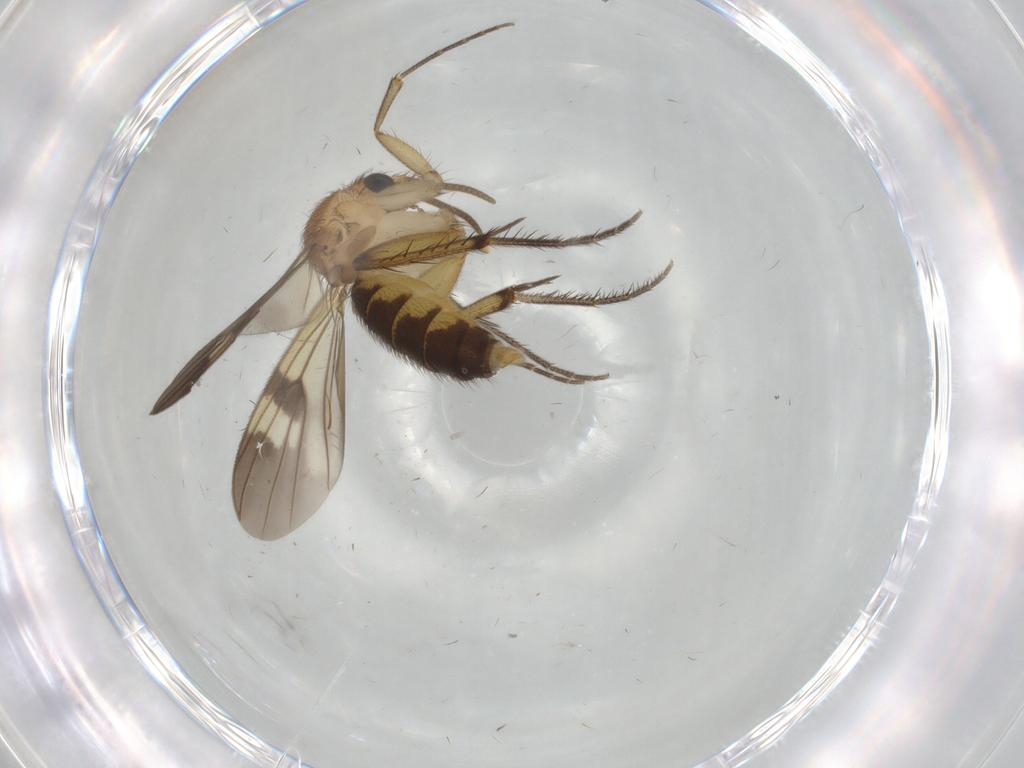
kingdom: Animalia
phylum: Arthropoda
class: Insecta
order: Diptera
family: Mycetophilidae
